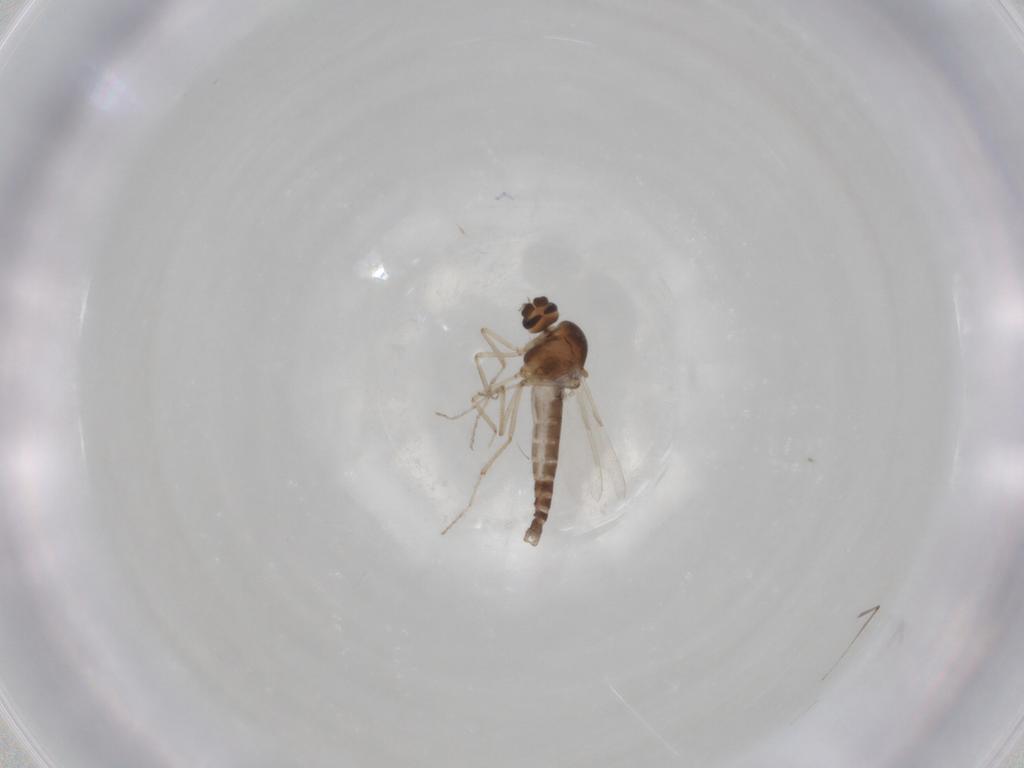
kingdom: Animalia
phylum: Arthropoda
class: Insecta
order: Diptera
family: Ceratopogonidae
